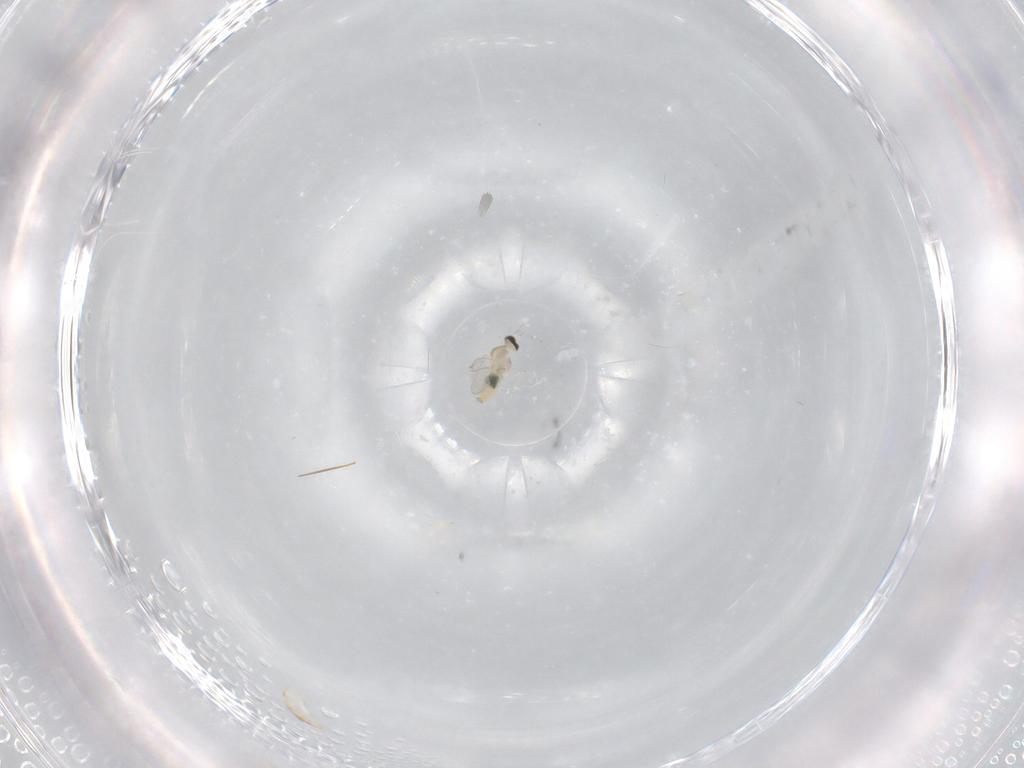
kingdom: Animalia
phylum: Arthropoda
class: Insecta
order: Diptera
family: Cecidomyiidae
